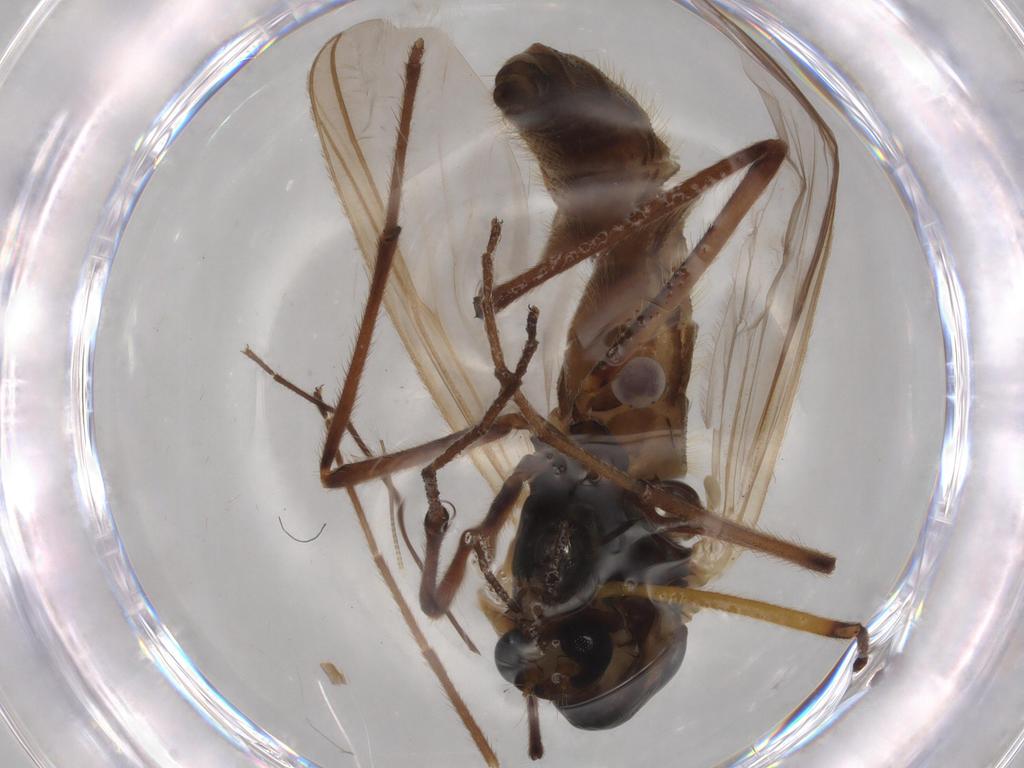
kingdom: Animalia
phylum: Arthropoda
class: Insecta
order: Diptera
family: Chironomidae
